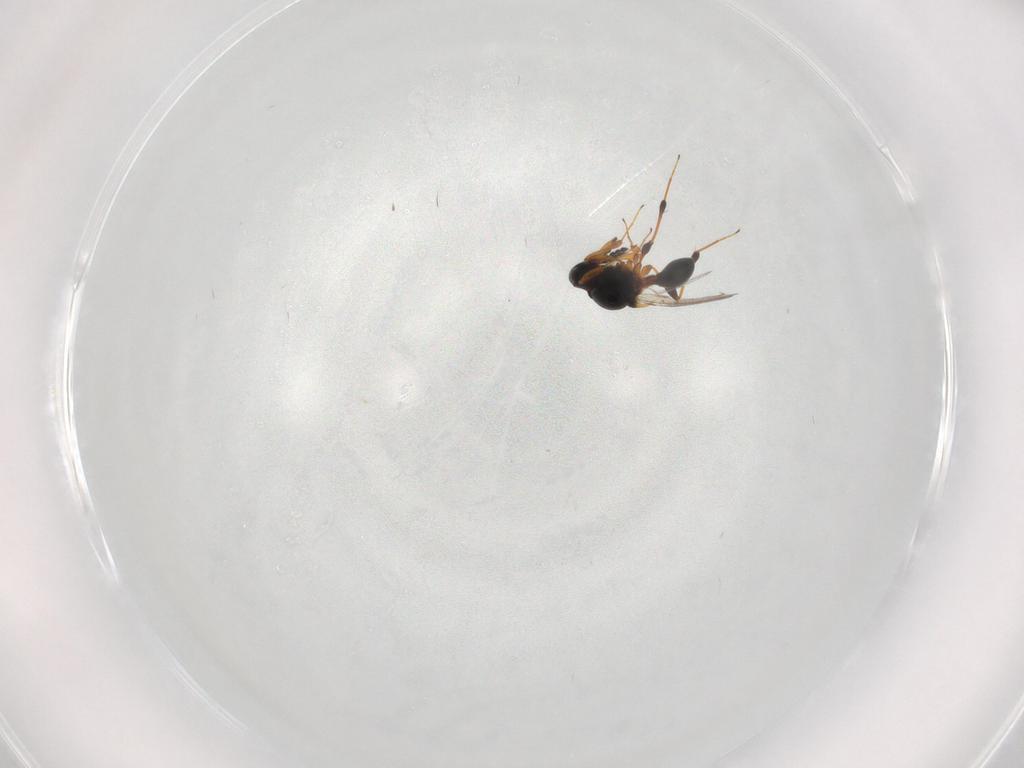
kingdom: Animalia
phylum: Arthropoda
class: Insecta
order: Hymenoptera
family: Platygastridae
